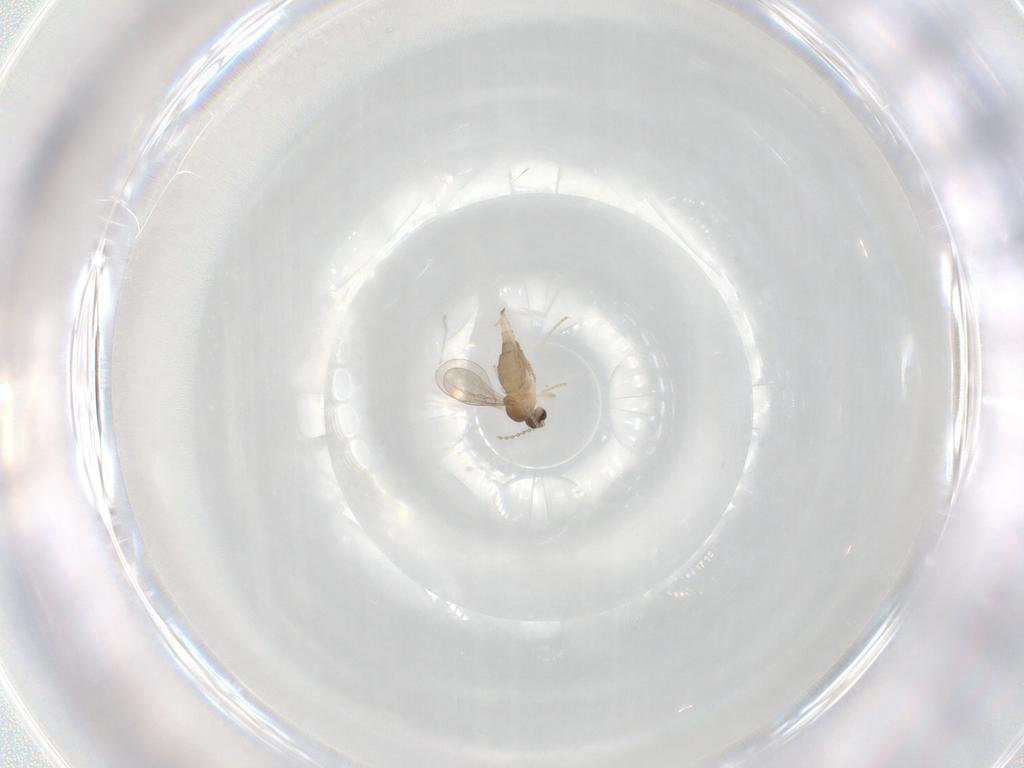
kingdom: Animalia
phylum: Arthropoda
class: Insecta
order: Diptera
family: Cecidomyiidae
